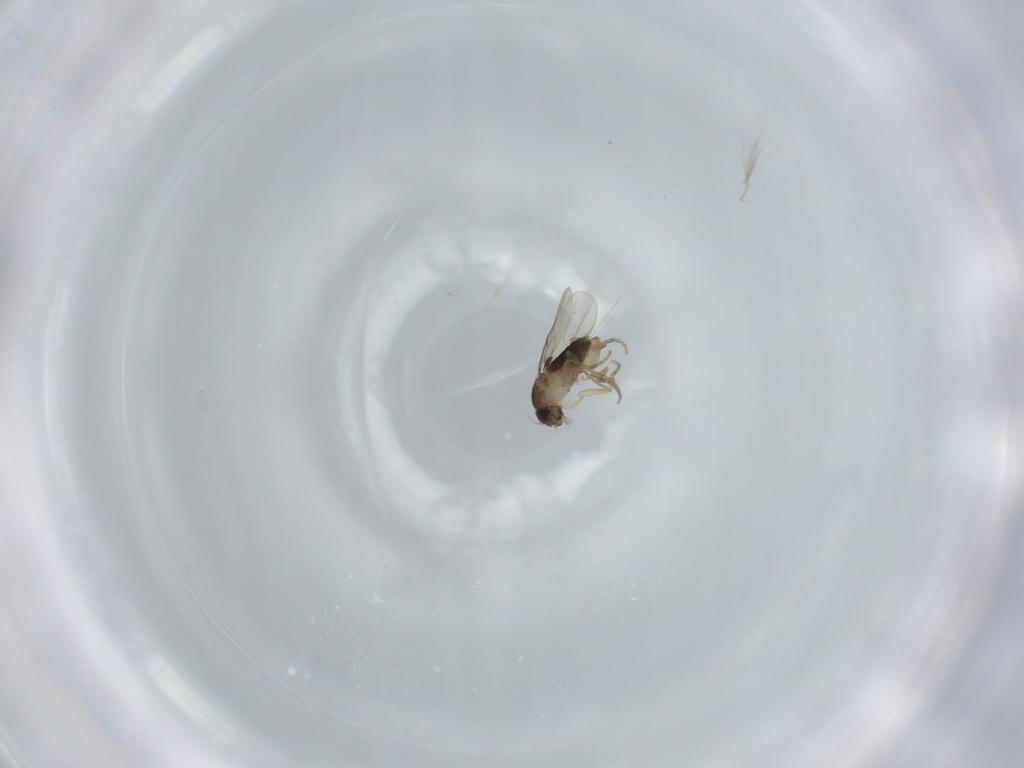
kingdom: Animalia
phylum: Arthropoda
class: Insecta
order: Diptera
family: Phoridae
